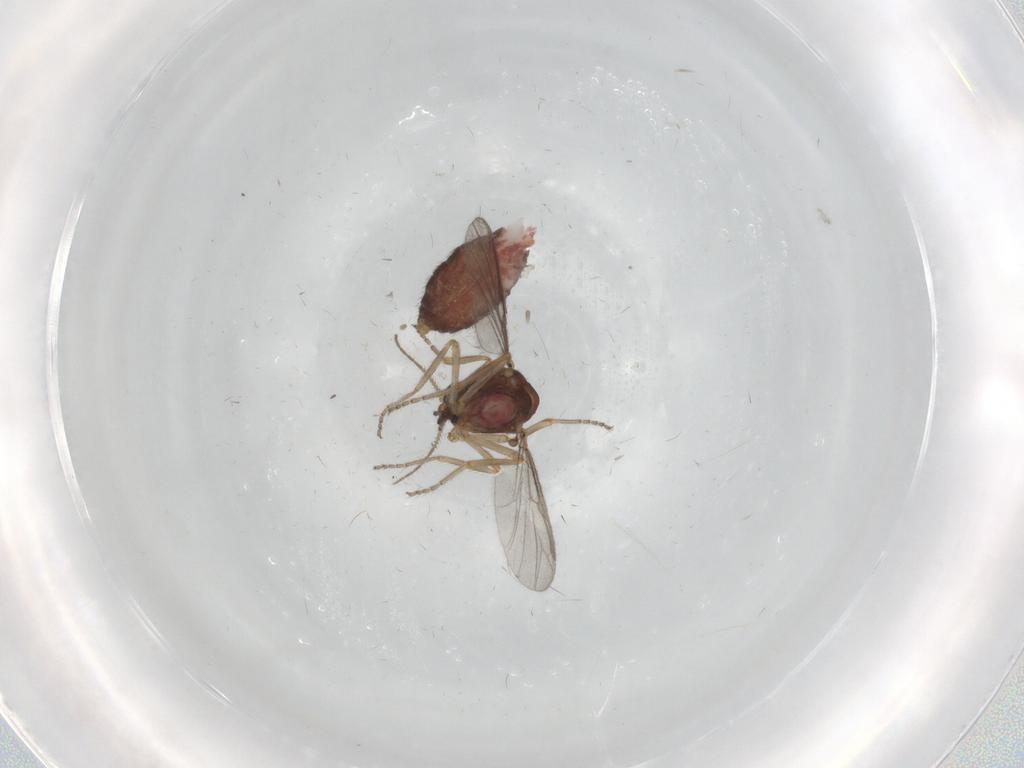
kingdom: Animalia
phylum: Arthropoda
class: Insecta
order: Diptera
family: Ceratopogonidae
